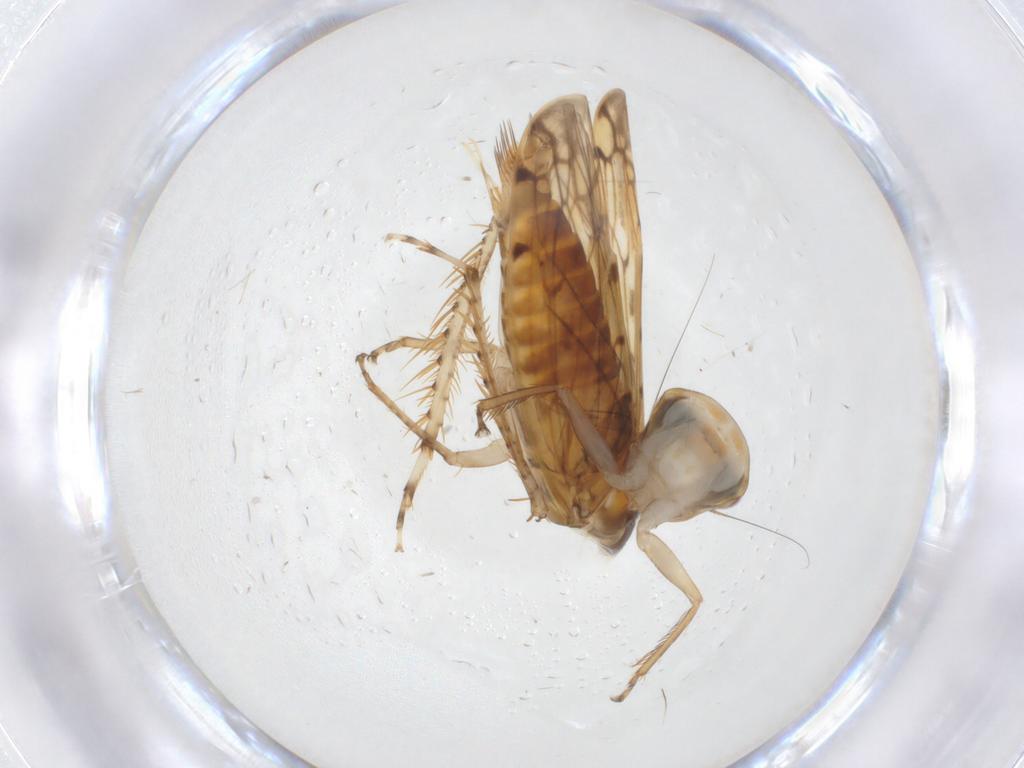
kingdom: Animalia
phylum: Arthropoda
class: Insecta
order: Hemiptera
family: Cicadellidae
